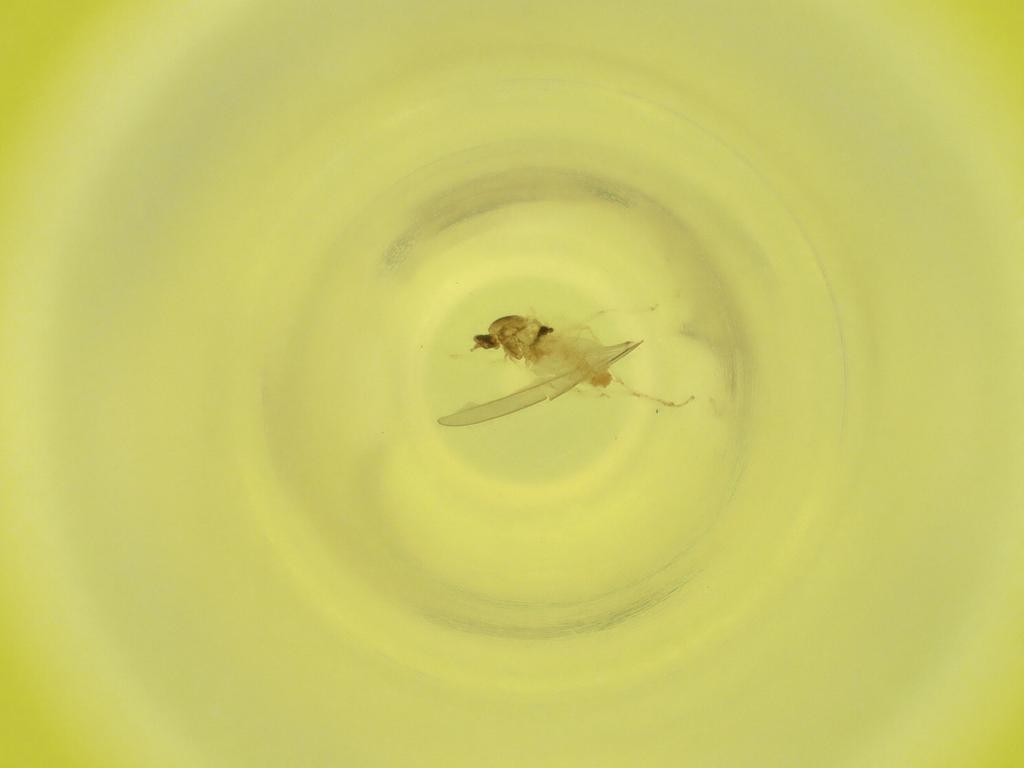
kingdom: Animalia
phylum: Arthropoda
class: Insecta
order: Diptera
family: Cecidomyiidae
